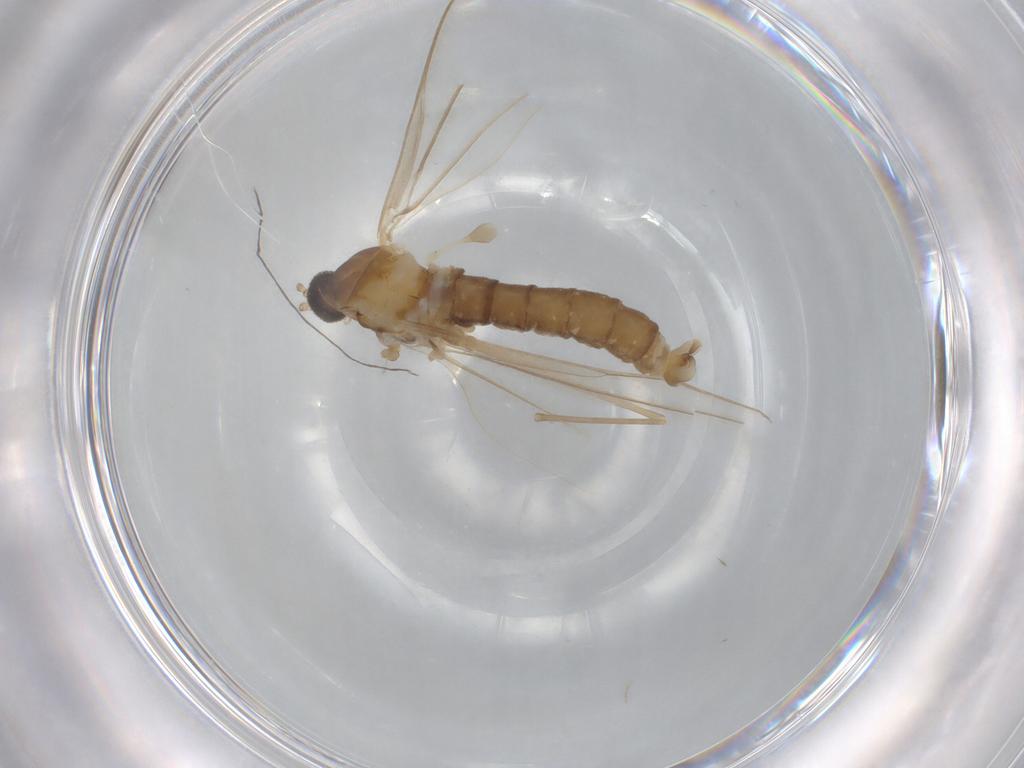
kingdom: Animalia
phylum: Arthropoda
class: Insecta
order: Diptera
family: Cecidomyiidae
